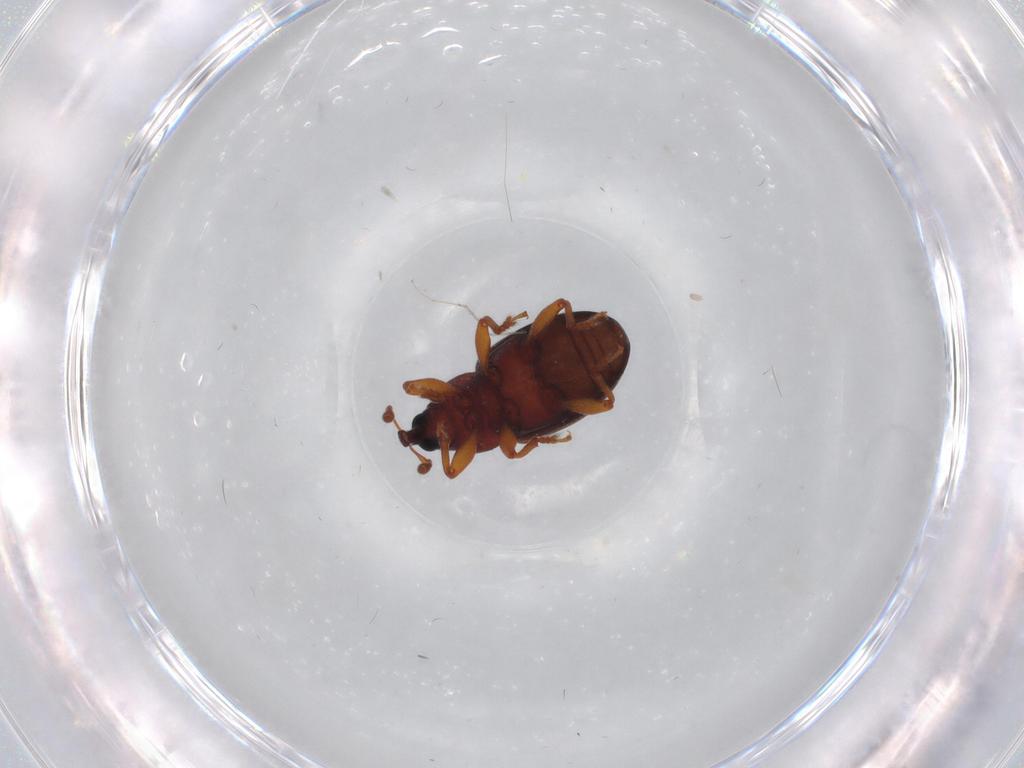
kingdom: Animalia
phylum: Arthropoda
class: Insecta
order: Coleoptera
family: Curculionidae
